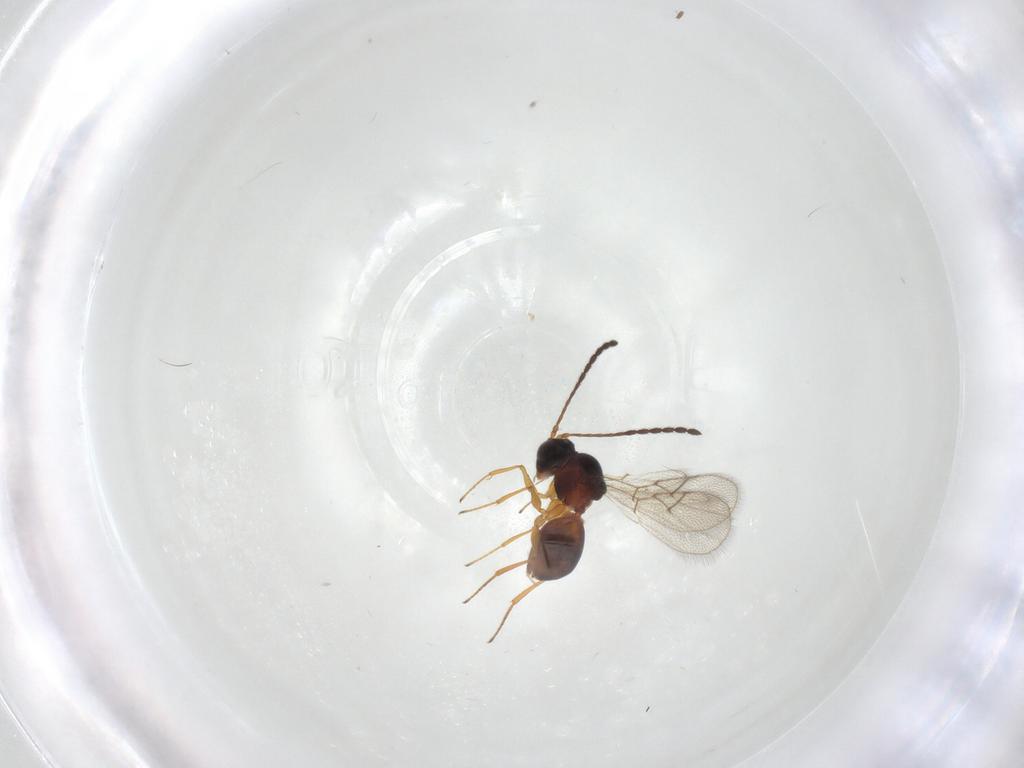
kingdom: Animalia
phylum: Arthropoda
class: Insecta
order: Hymenoptera
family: Figitidae
